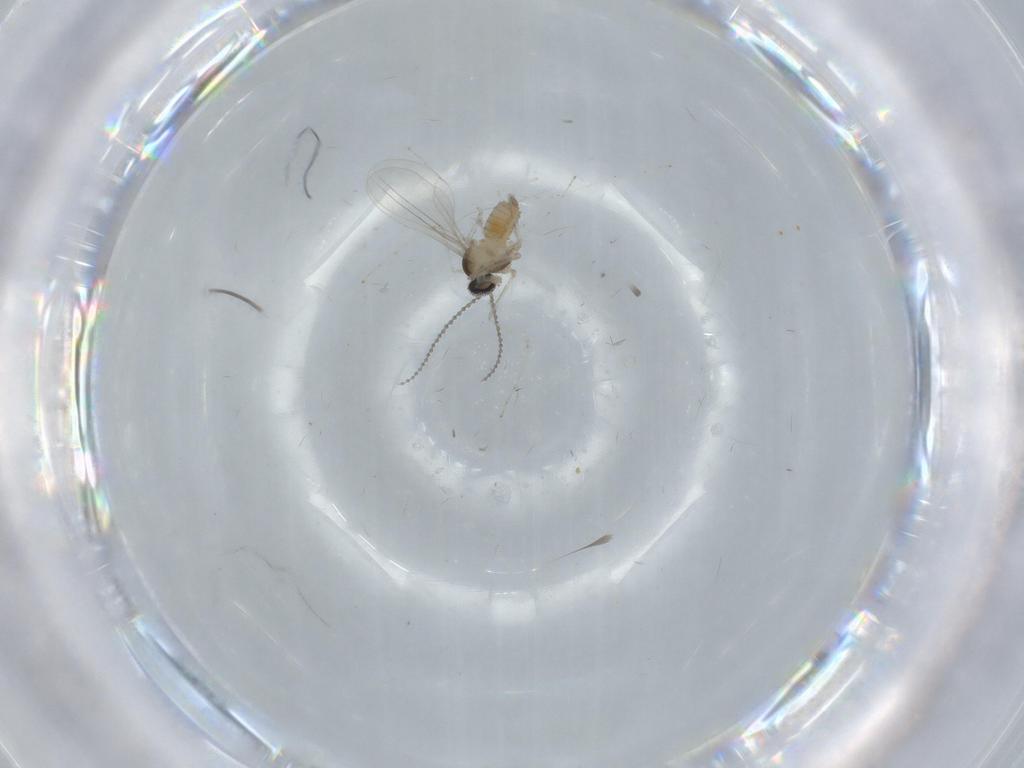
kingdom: Animalia
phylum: Arthropoda
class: Insecta
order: Diptera
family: Cecidomyiidae
